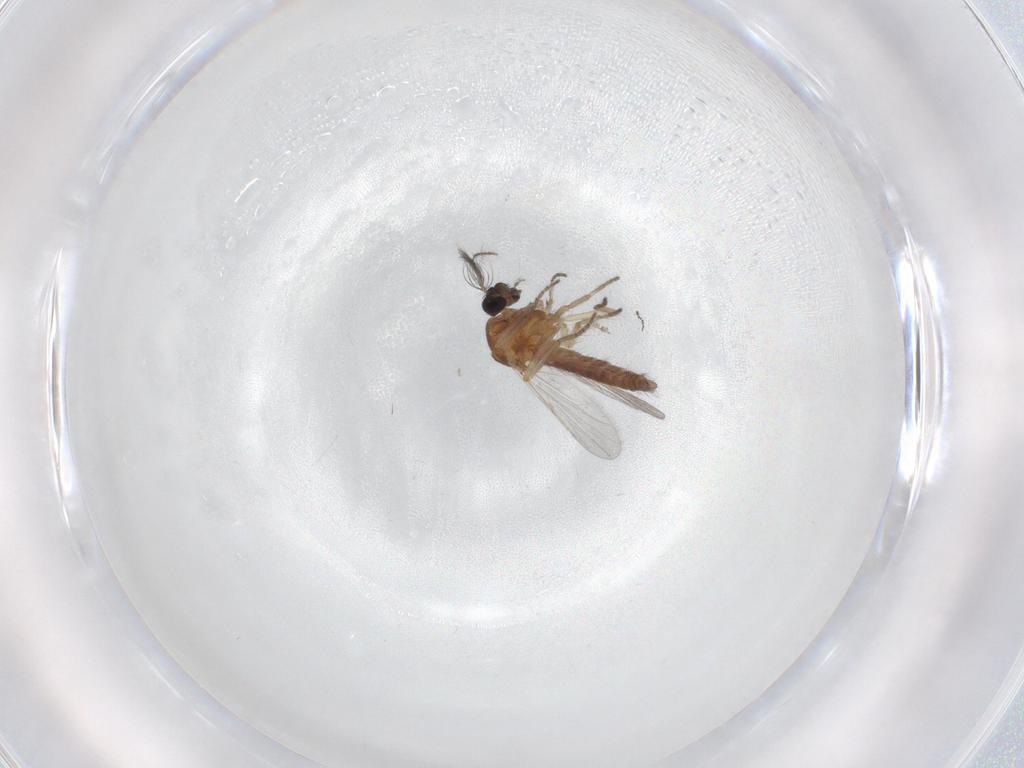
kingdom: Animalia
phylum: Arthropoda
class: Insecta
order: Diptera
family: Cecidomyiidae
